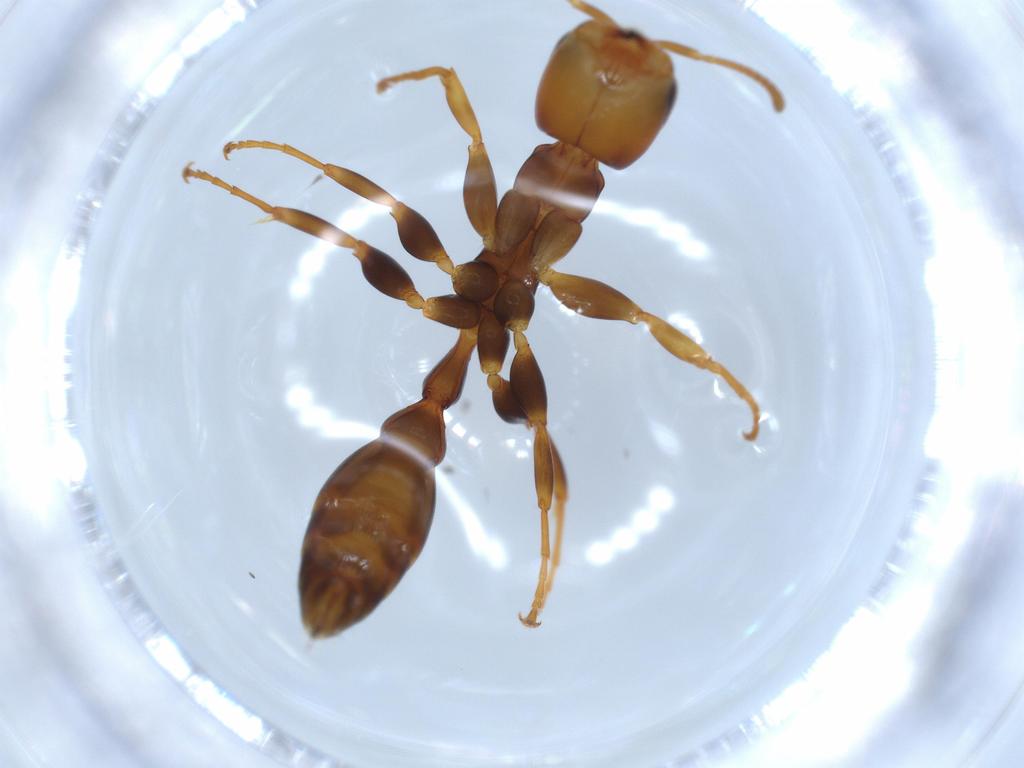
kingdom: Animalia
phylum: Arthropoda
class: Insecta
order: Hymenoptera
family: Formicidae
